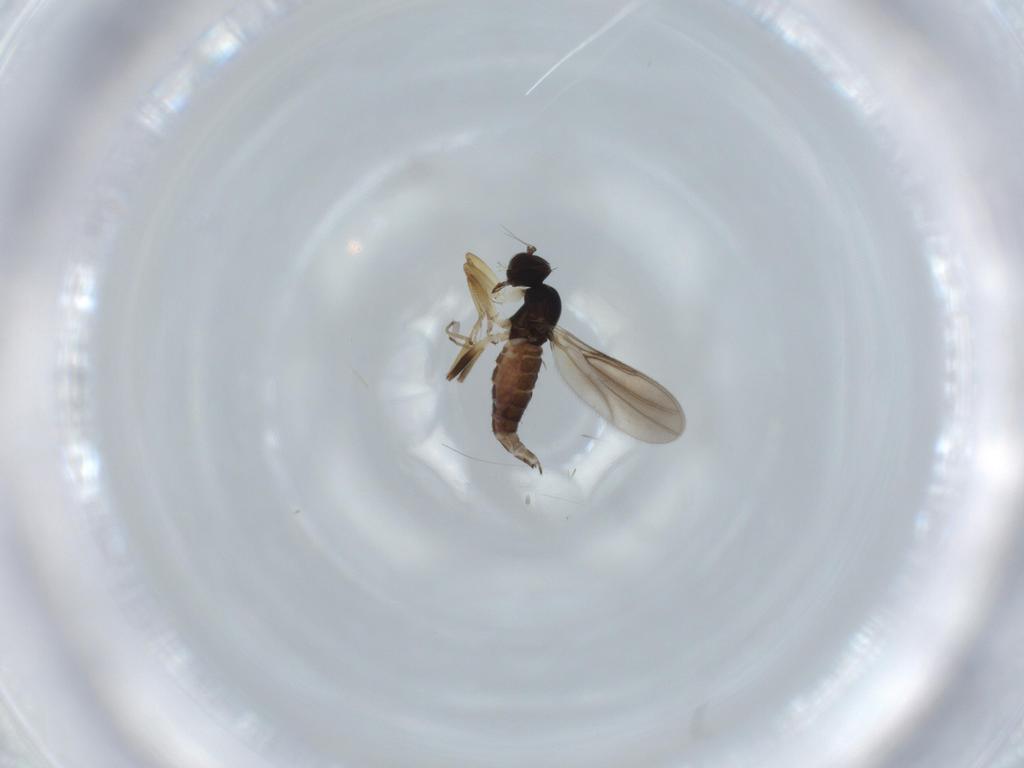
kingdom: Animalia
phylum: Arthropoda
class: Insecta
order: Diptera
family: Hybotidae
